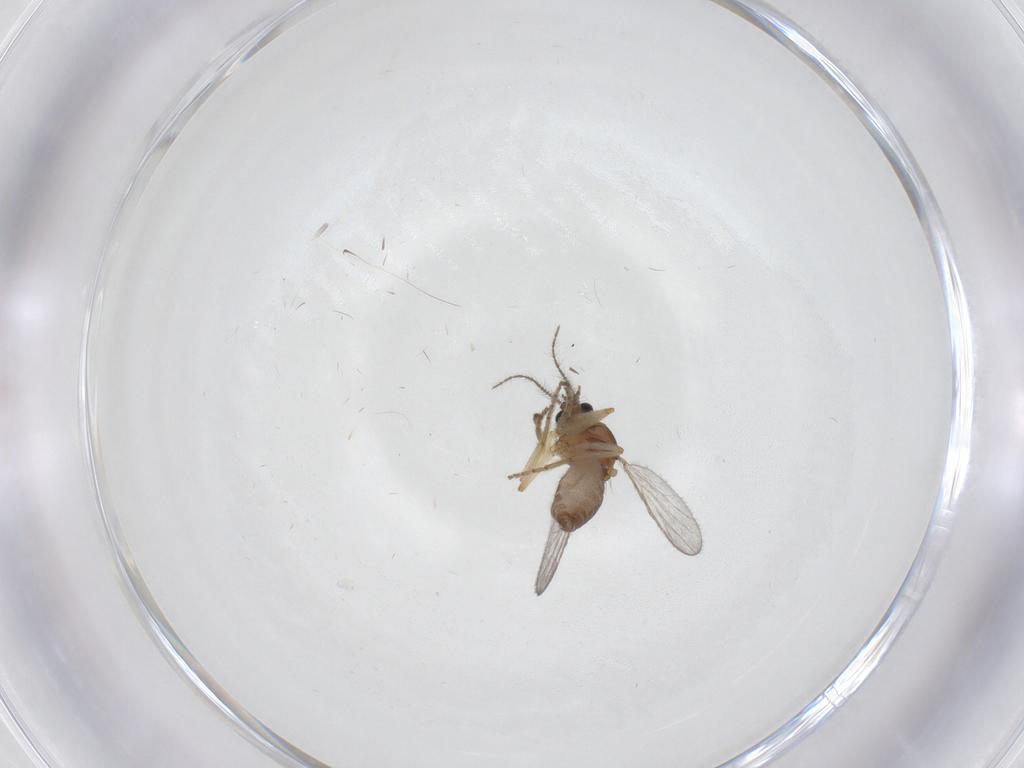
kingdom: Animalia
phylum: Arthropoda
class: Insecta
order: Diptera
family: Ceratopogonidae
